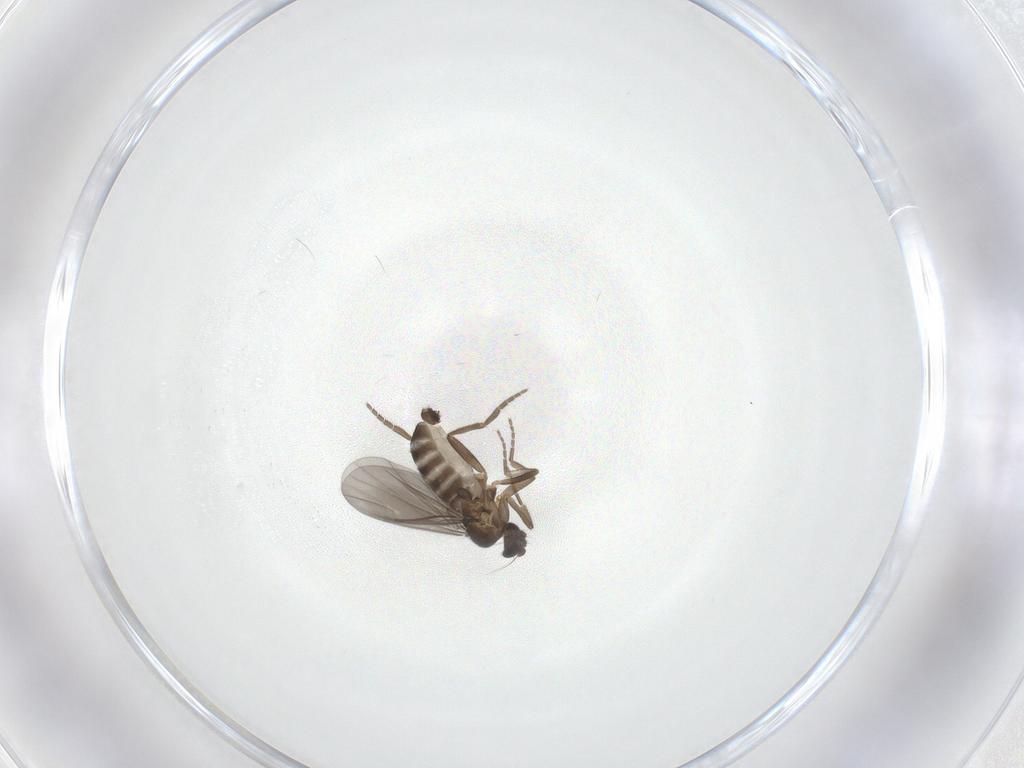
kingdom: Animalia
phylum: Arthropoda
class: Insecta
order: Diptera
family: Phoridae
